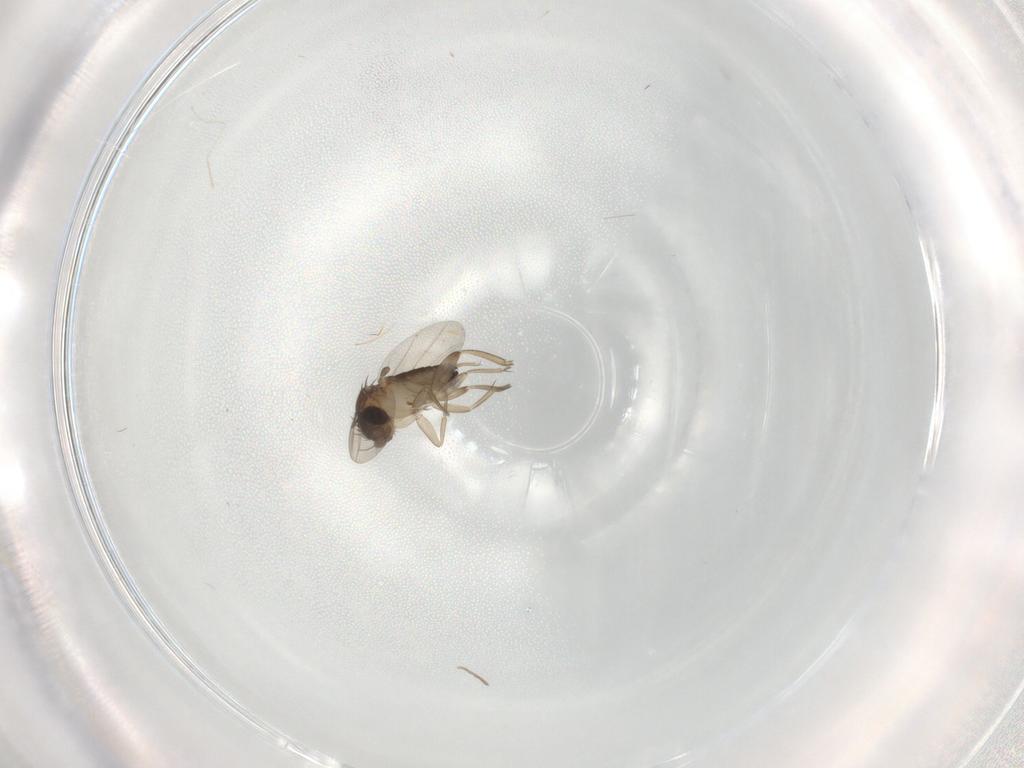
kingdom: Animalia
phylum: Arthropoda
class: Insecta
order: Diptera
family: Phoridae
